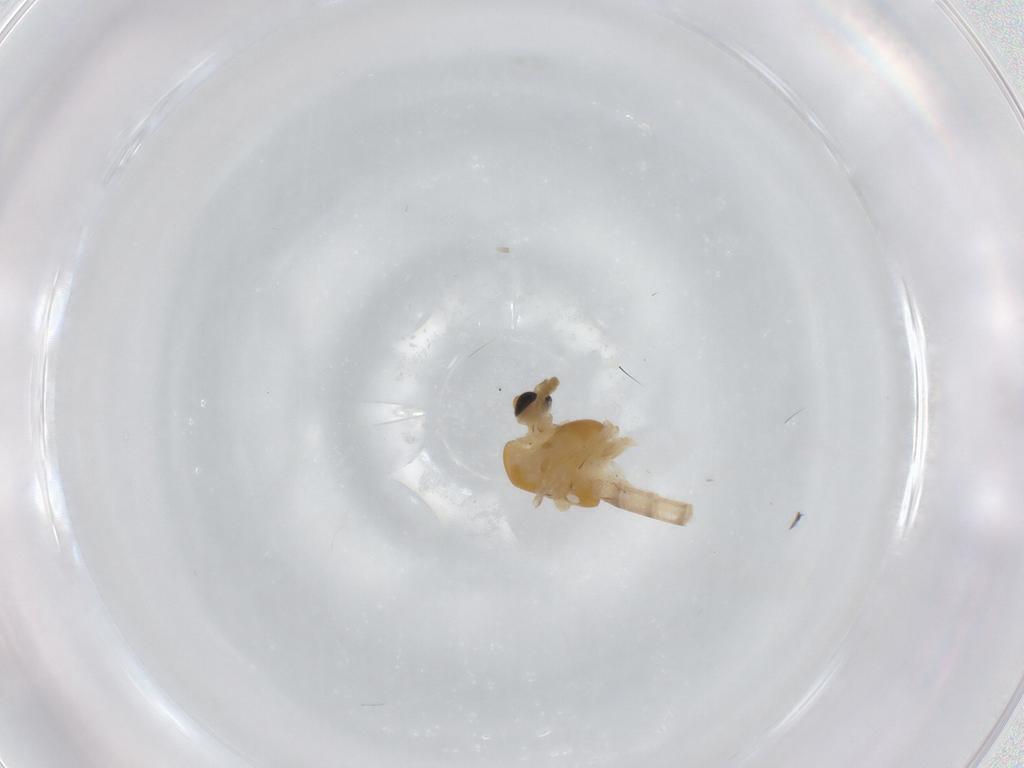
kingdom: Animalia
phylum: Arthropoda
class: Insecta
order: Diptera
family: Cecidomyiidae
